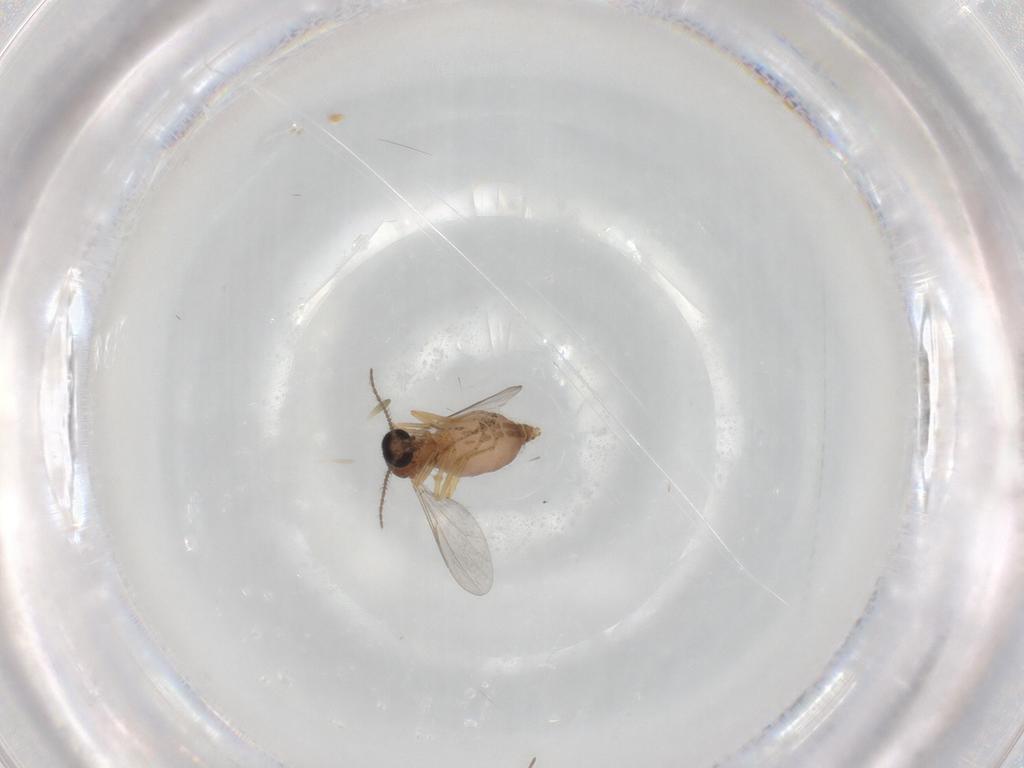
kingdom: Animalia
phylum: Arthropoda
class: Insecta
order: Diptera
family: Ceratopogonidae
